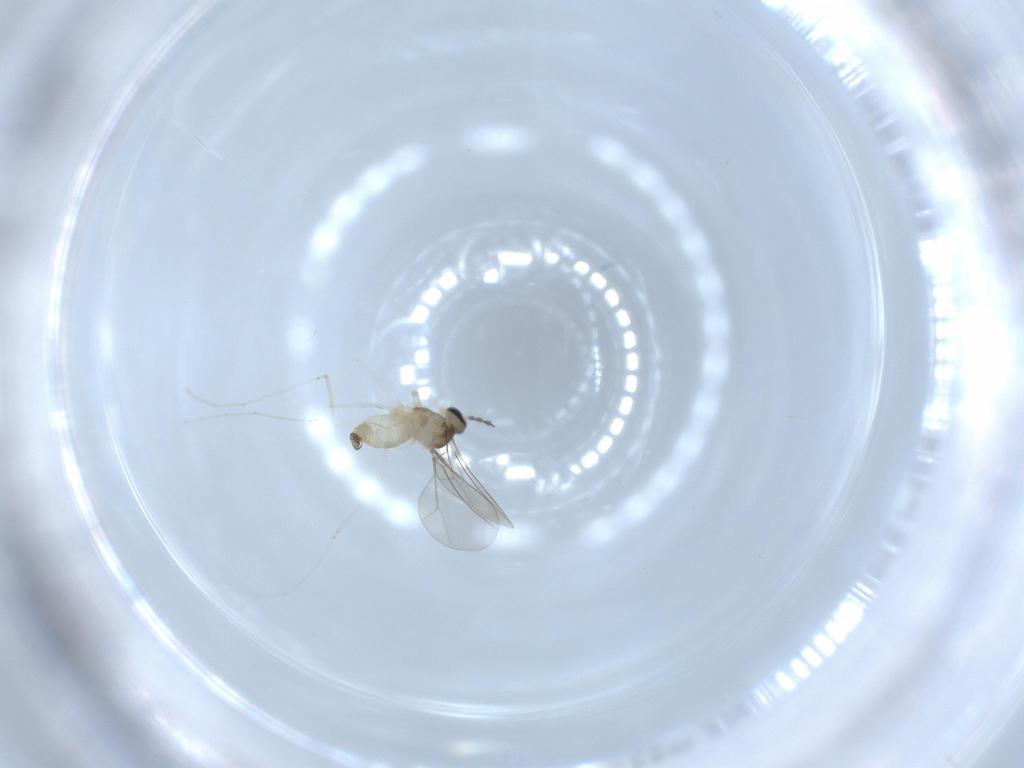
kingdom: Animalia
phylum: Arthropoda
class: Insecta
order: Diptera
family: Cecidomyiidae
